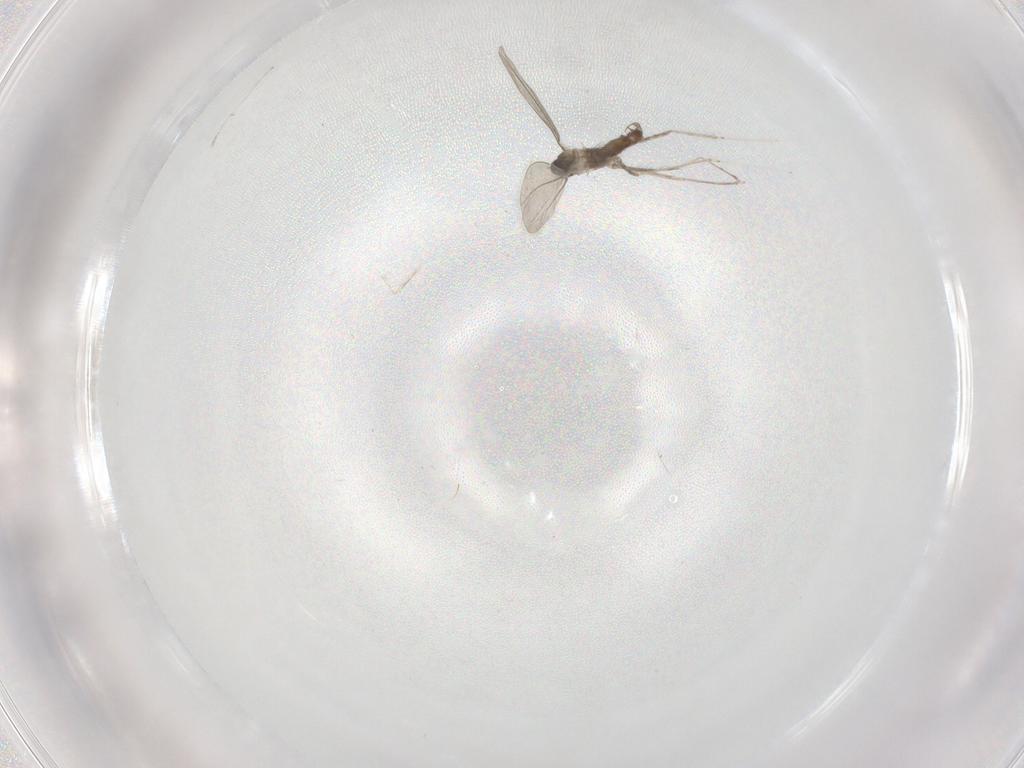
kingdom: Animalia
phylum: Arthropoda
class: Insecta
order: Diptera
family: Cecidomyiidae
